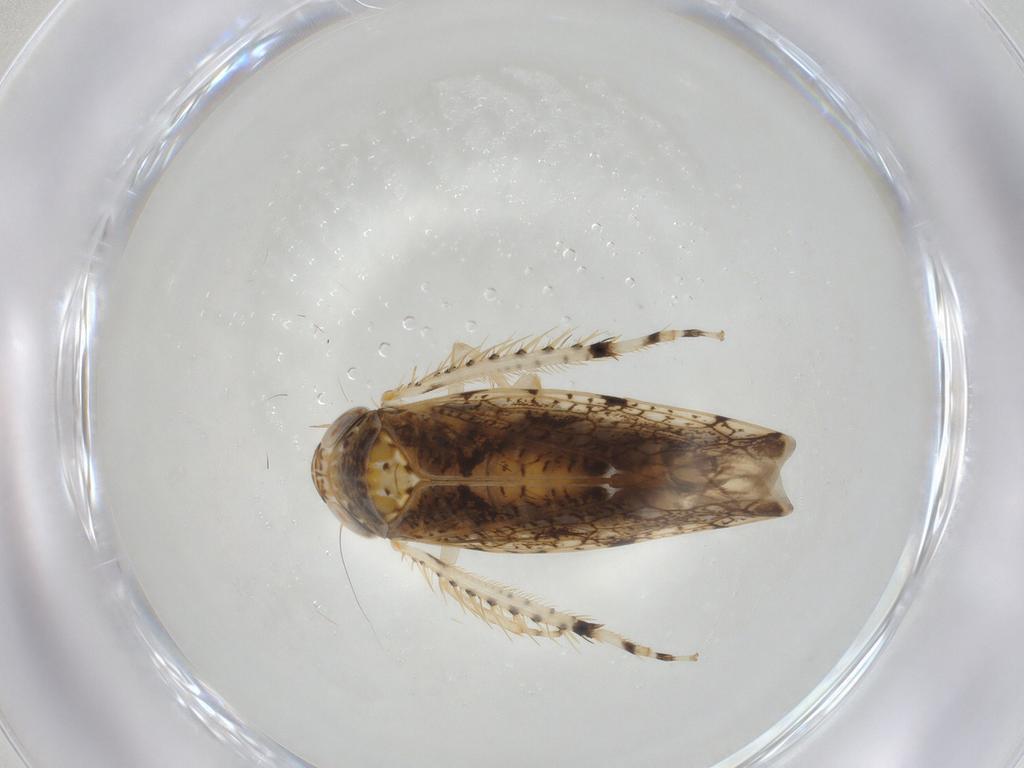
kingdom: Animalia
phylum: Arthropoda
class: Insecta
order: Hemiptera
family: Cicadellidae
